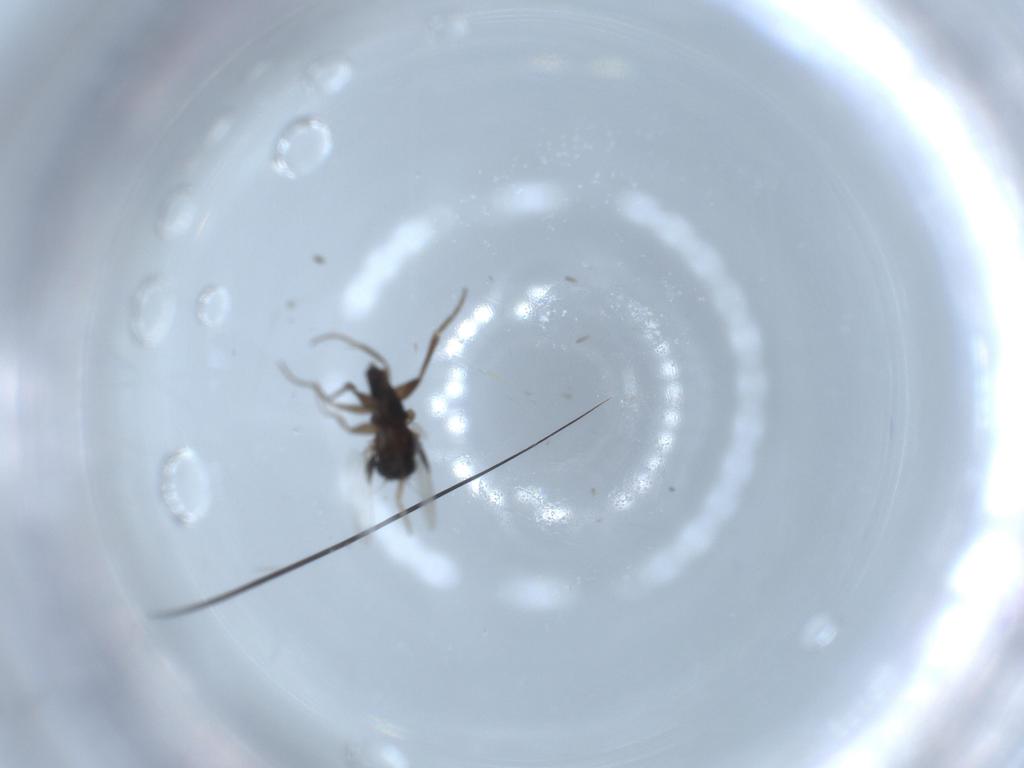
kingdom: Animalia
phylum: Arthropoda
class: Insecta
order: Diptera
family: Phoridae
